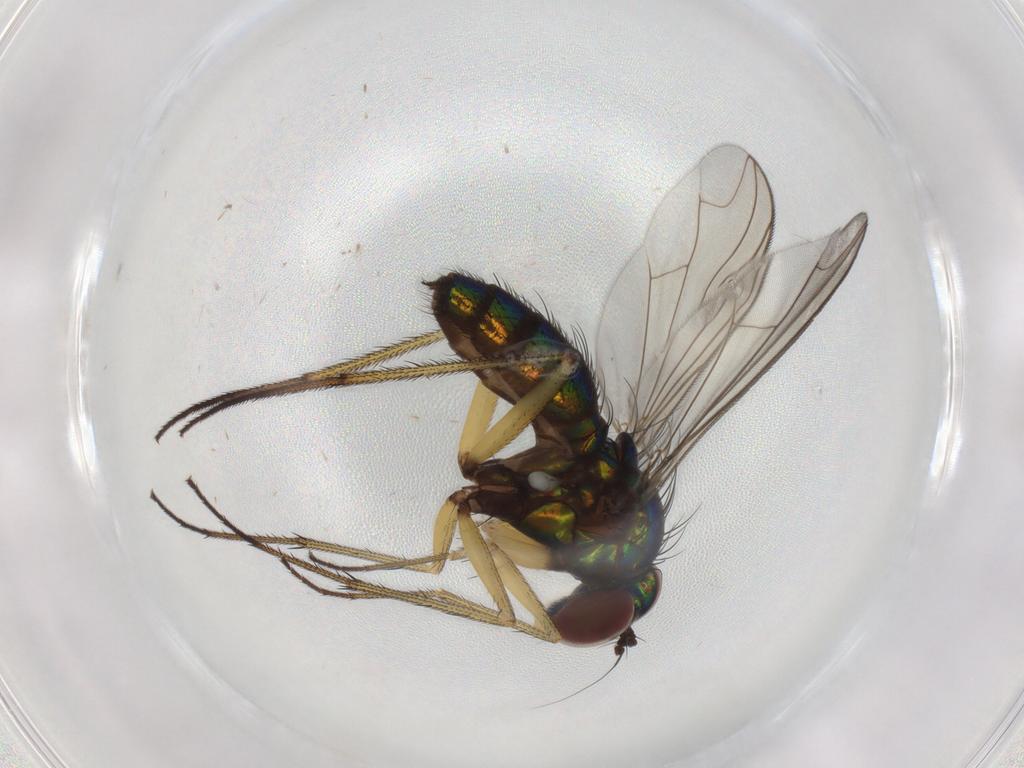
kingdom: Animalia
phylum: Arthropoda
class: Insecta
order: Diptera
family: Dolichopodidae
